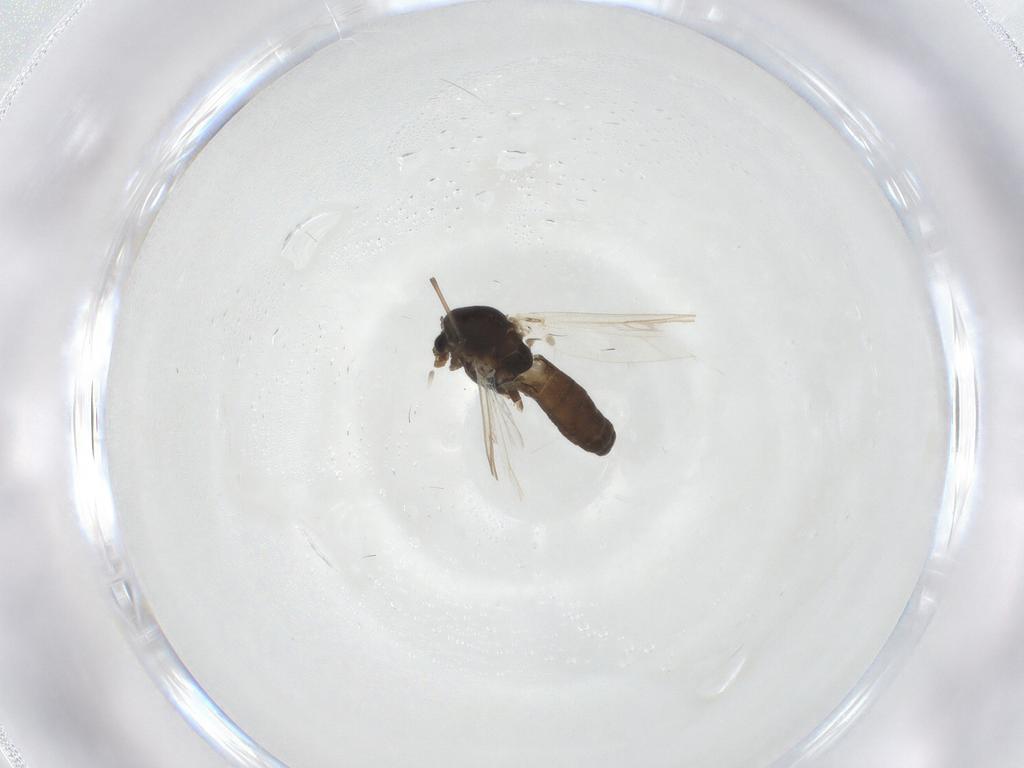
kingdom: Animalia
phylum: Arthropoda
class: Insecta
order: Diptera
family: Chironomidae
